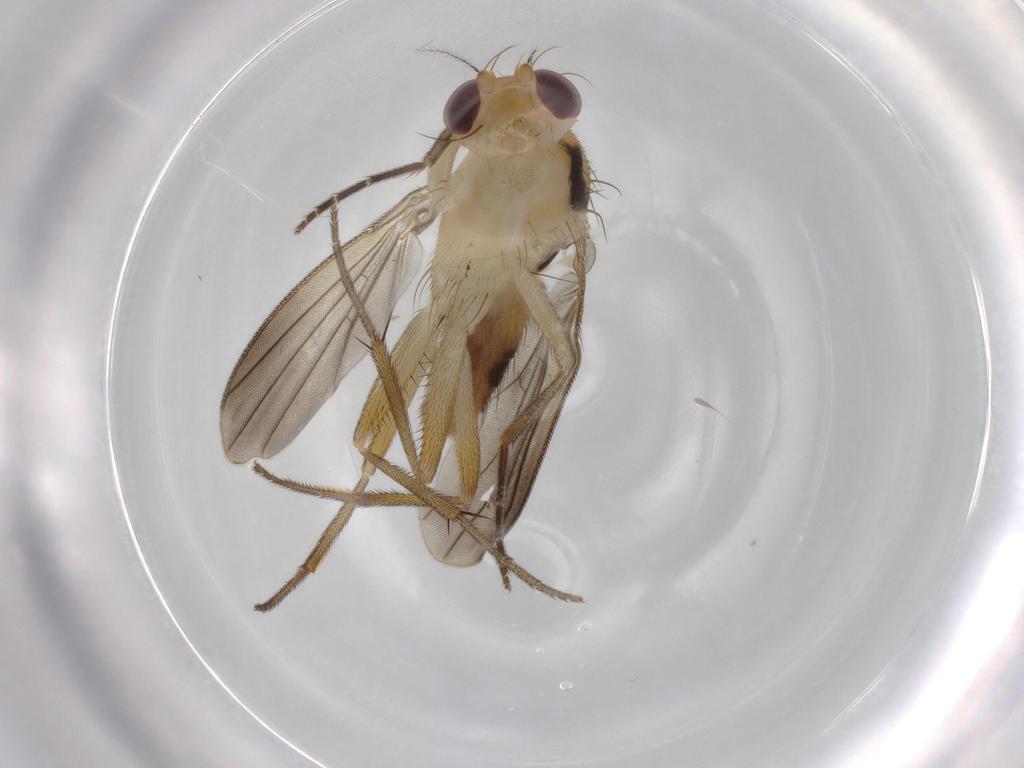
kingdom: Animalia
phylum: Arthropoda
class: Insecta
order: Diptera
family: Clusiidae
